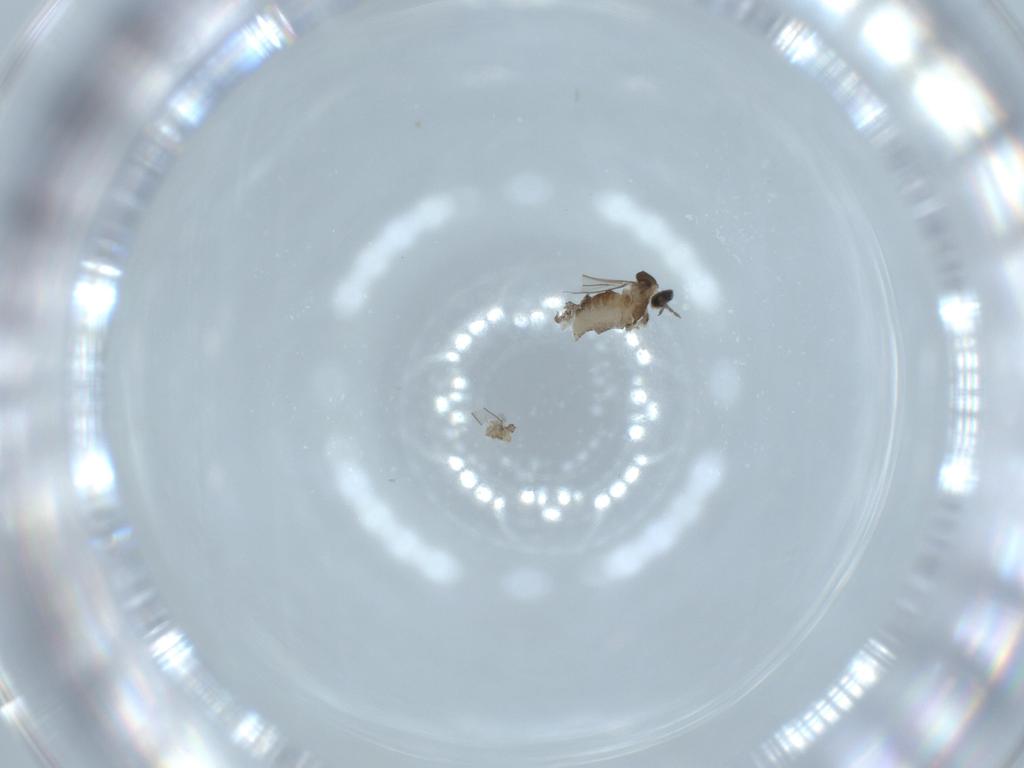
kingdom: Animalia
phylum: Arthropoda
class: Insecta
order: Diptera
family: Cecidomyiidae
